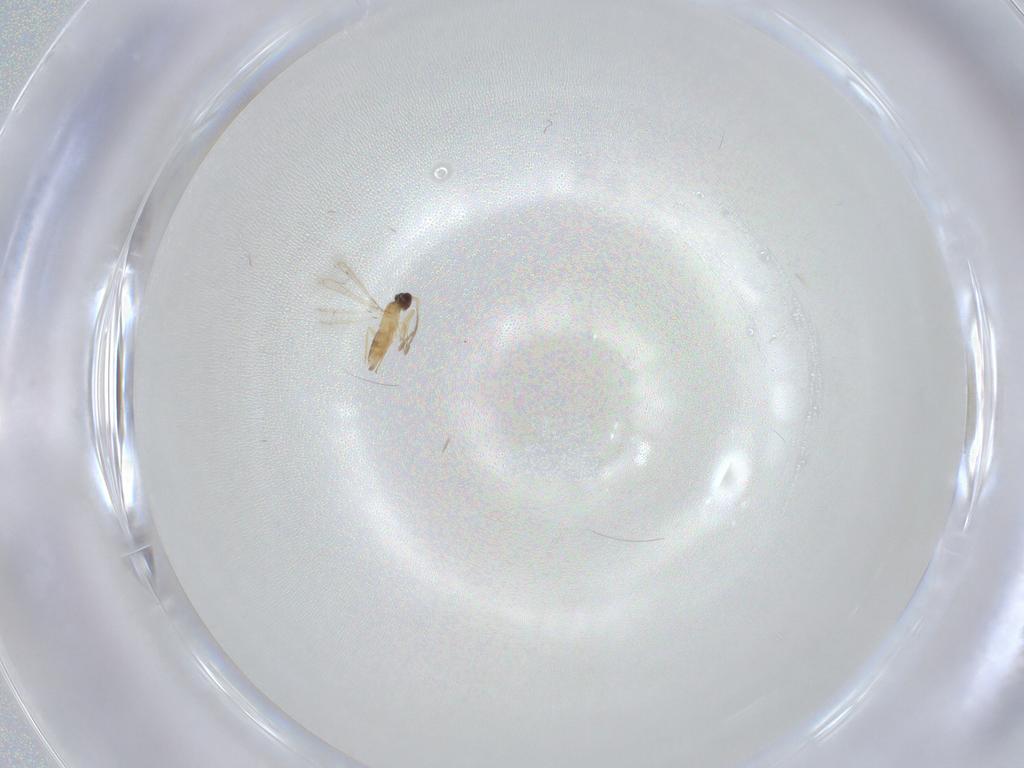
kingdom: Animalia
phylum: Arthropoda
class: Insecta
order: Hymenoptera
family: Mymaridae
